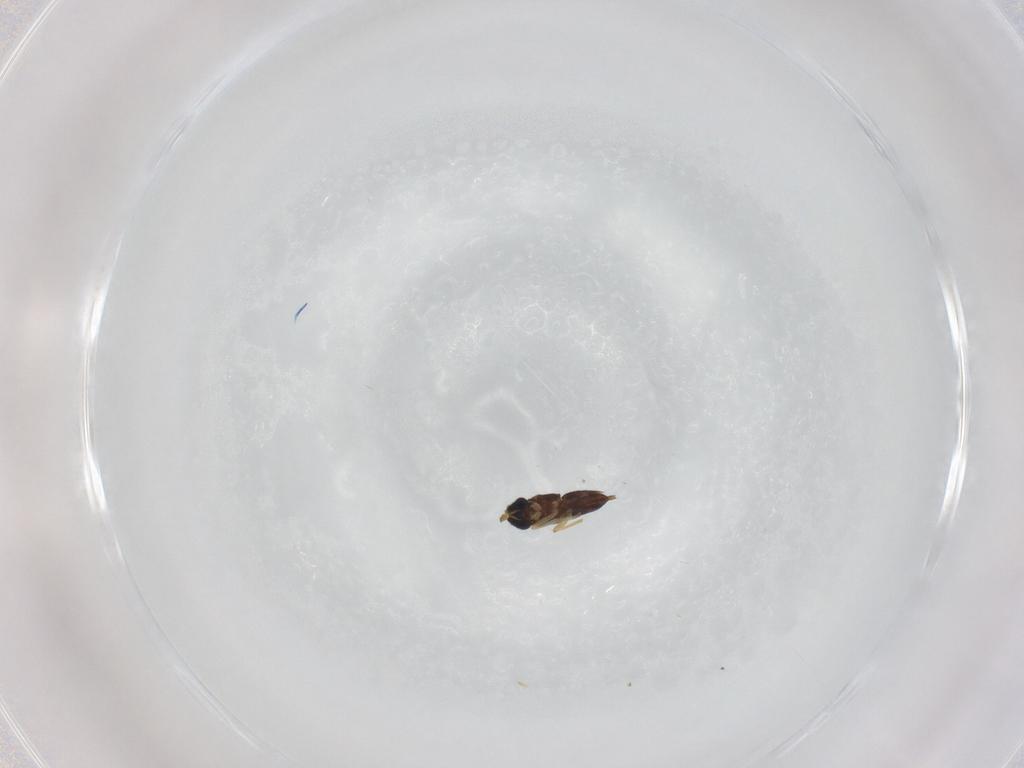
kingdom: Animalia
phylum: Arthropoda
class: Insecta
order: Hymenoptera
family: Encyrtidae
